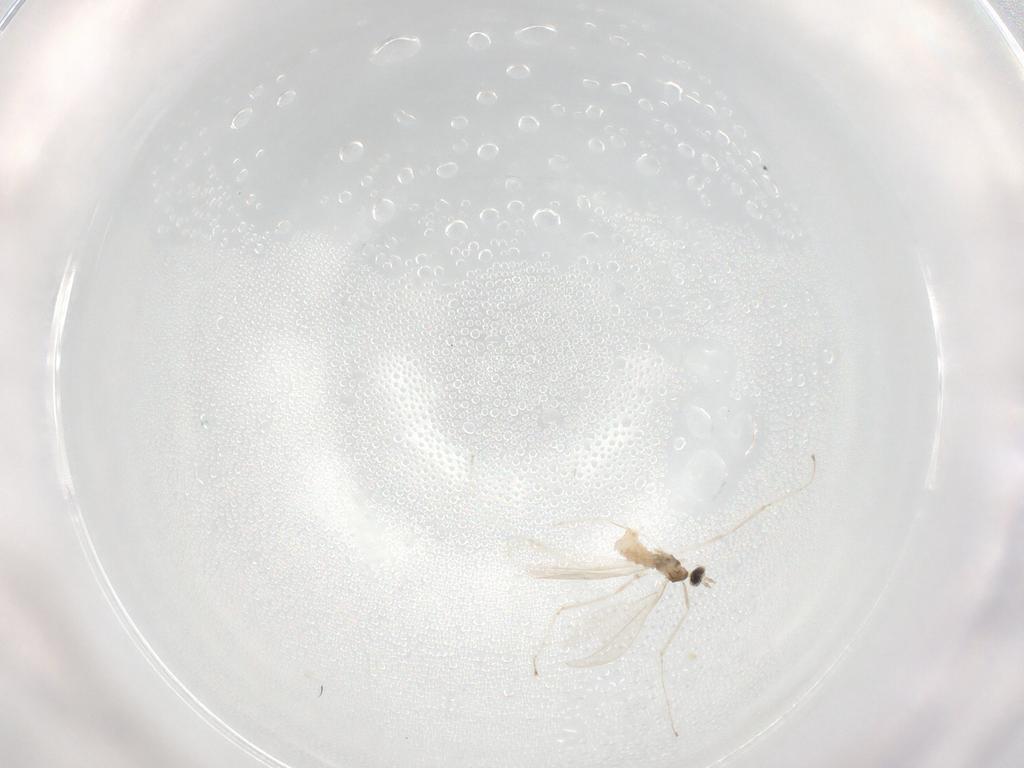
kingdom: Animalia
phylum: Arthropoda
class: Insecta
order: Diptera
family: Cecidomyiidae
